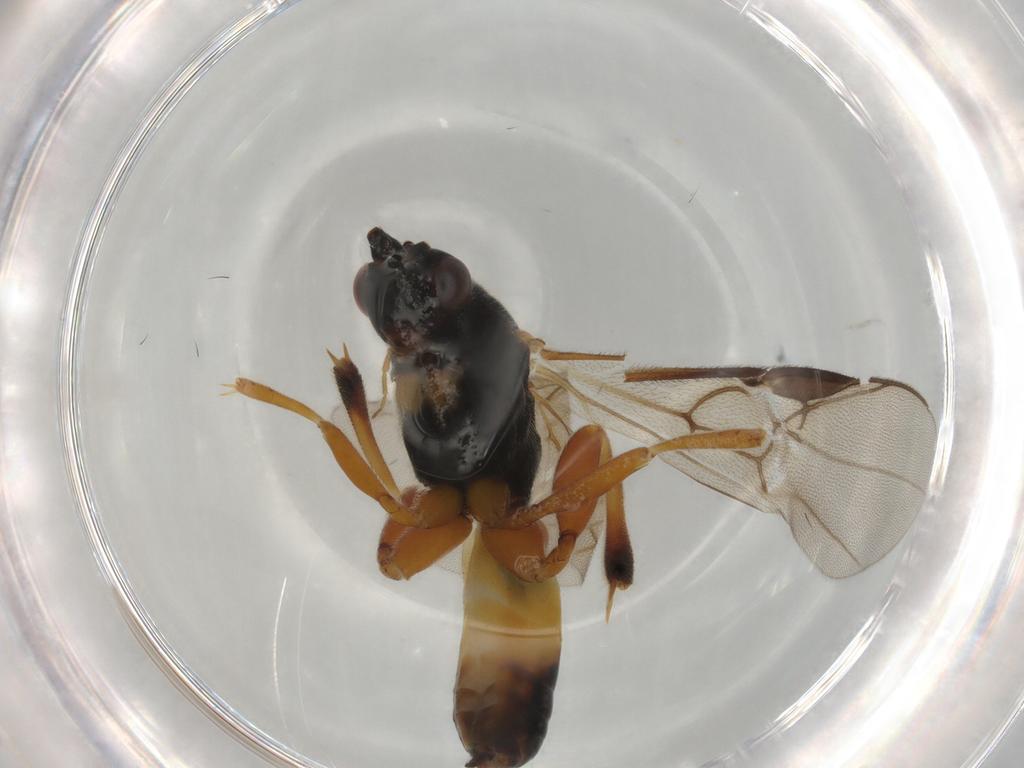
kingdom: Animalia
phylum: Arthropoda
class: Insecta
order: Hymenoptera
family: Braconidae
